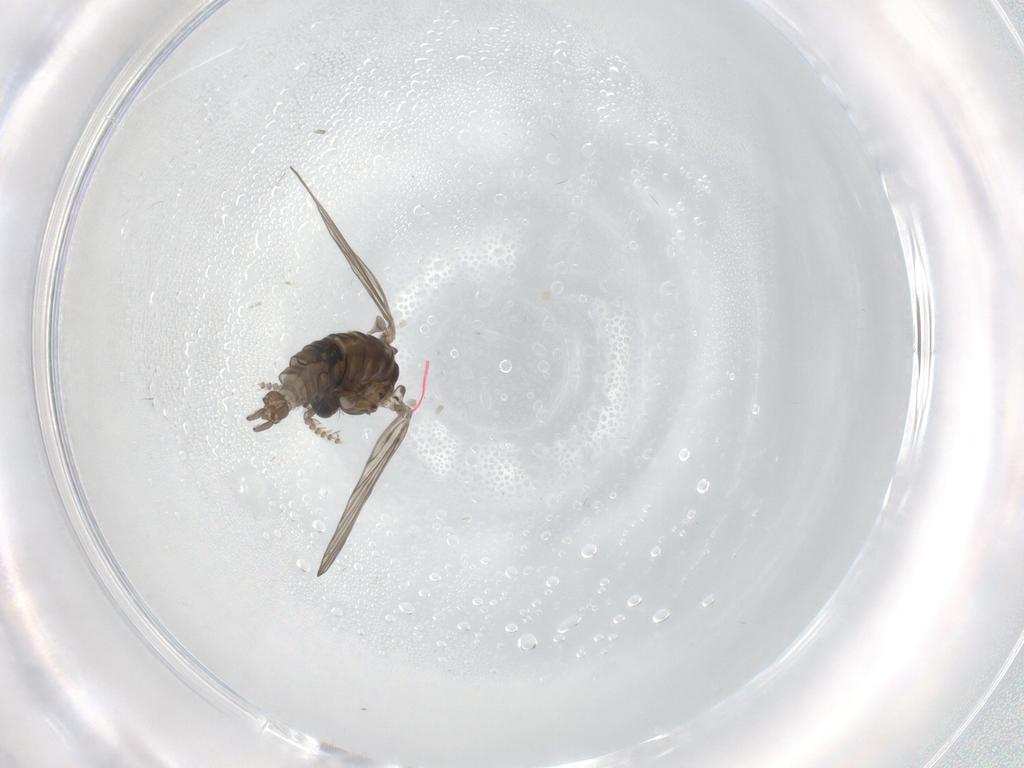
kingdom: Animalia
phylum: Arthropoda
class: Insecta
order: Diptera
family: Psychodidae
